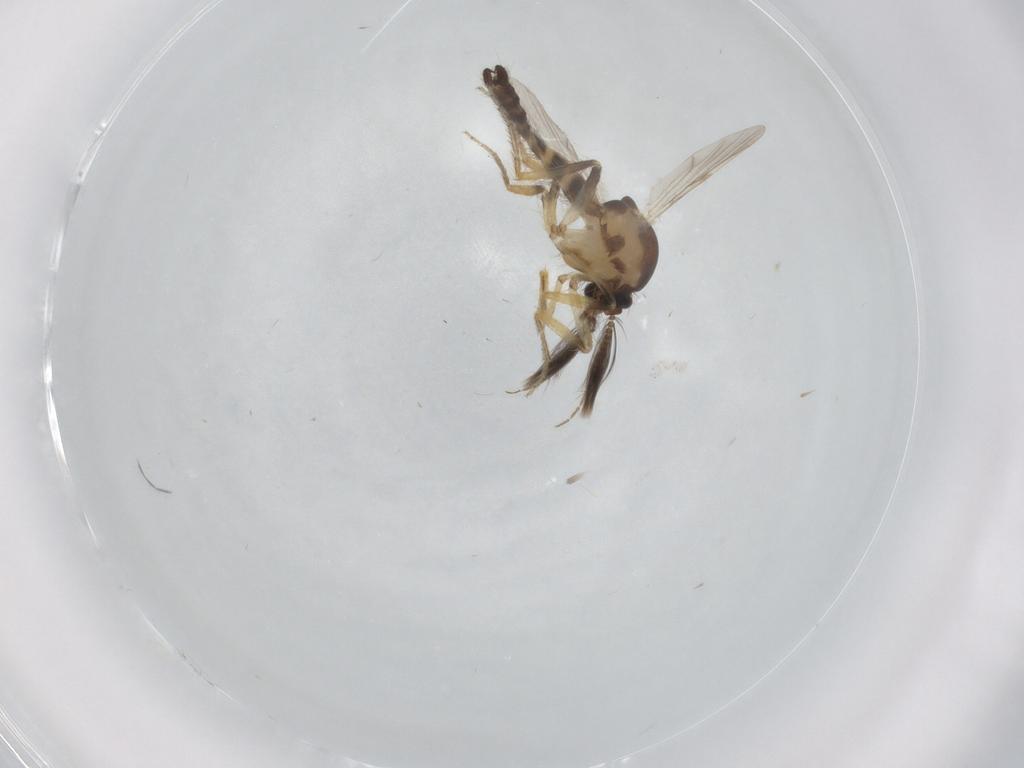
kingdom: Animalia
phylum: Arthropoda
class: Insecta
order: Diptera
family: Ceratopogonidae
